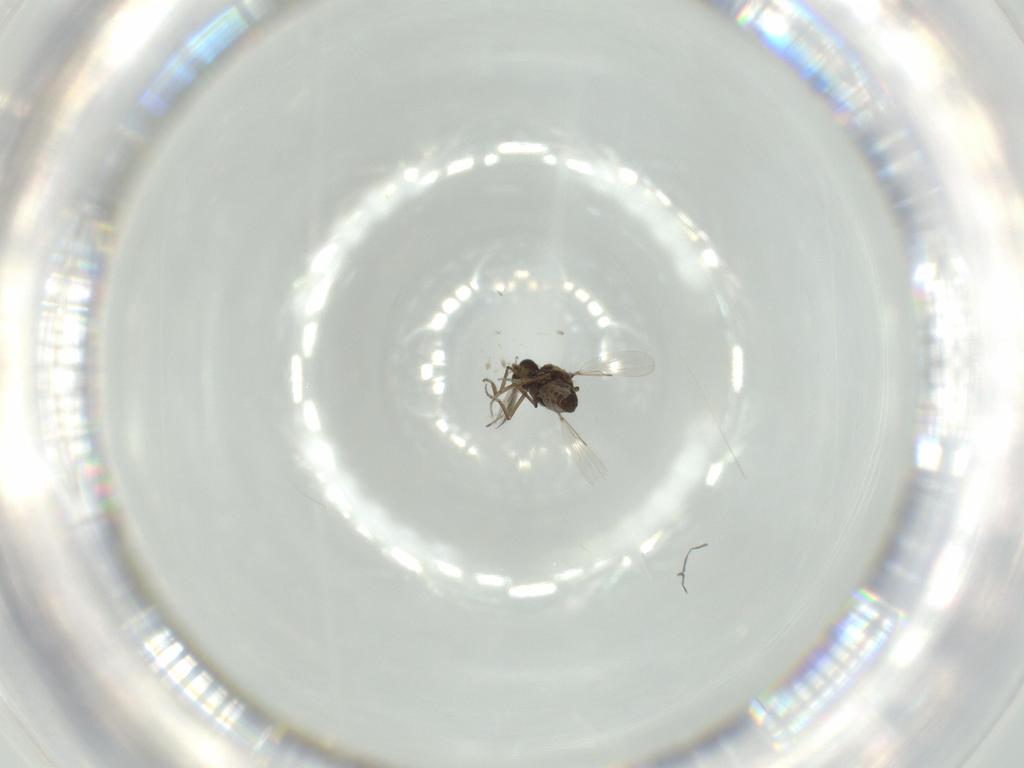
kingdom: Animalia
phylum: Arthropoda
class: Insecta
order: Diptera
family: Ceratopogonidae
